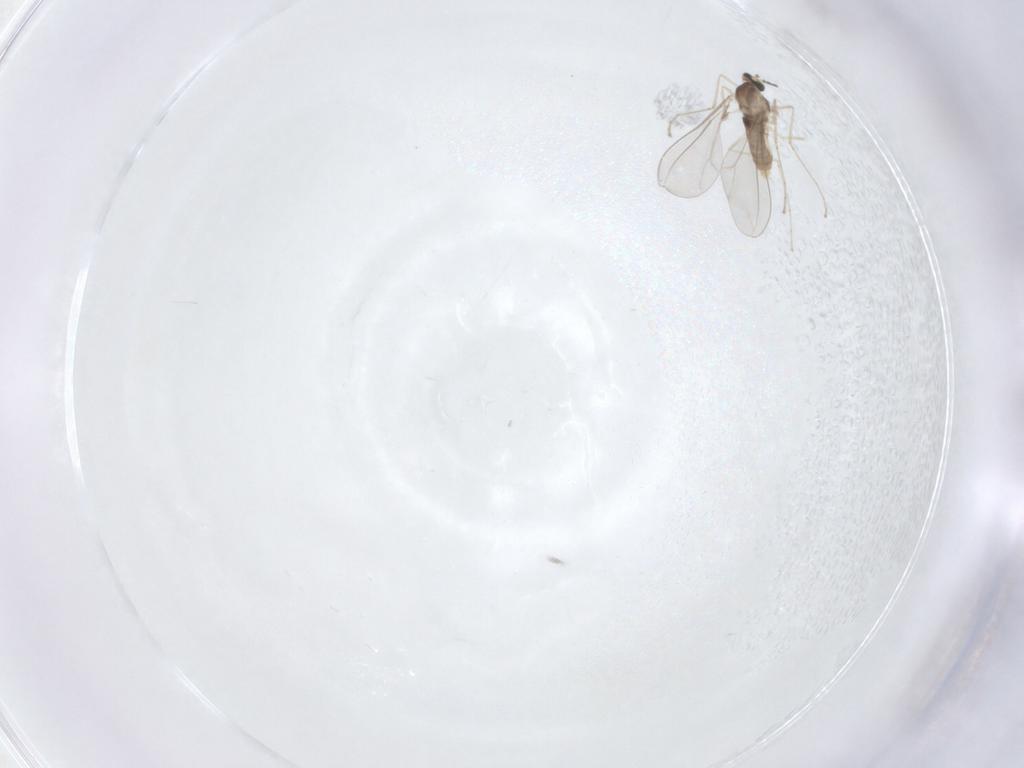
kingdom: Animalia
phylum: Arthropoda
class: Insecta
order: Diptera
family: Cecidomyiidae
